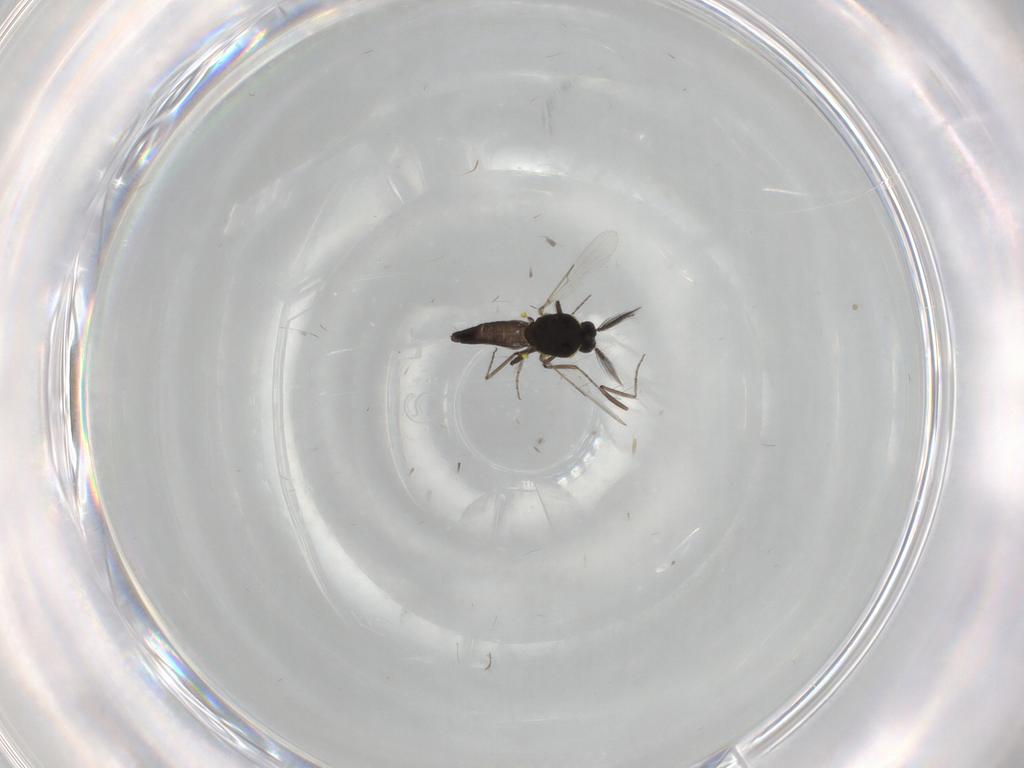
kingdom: Animalia
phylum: Arthropoda
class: Insecta
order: Diptera
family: Ceratopogonidae
